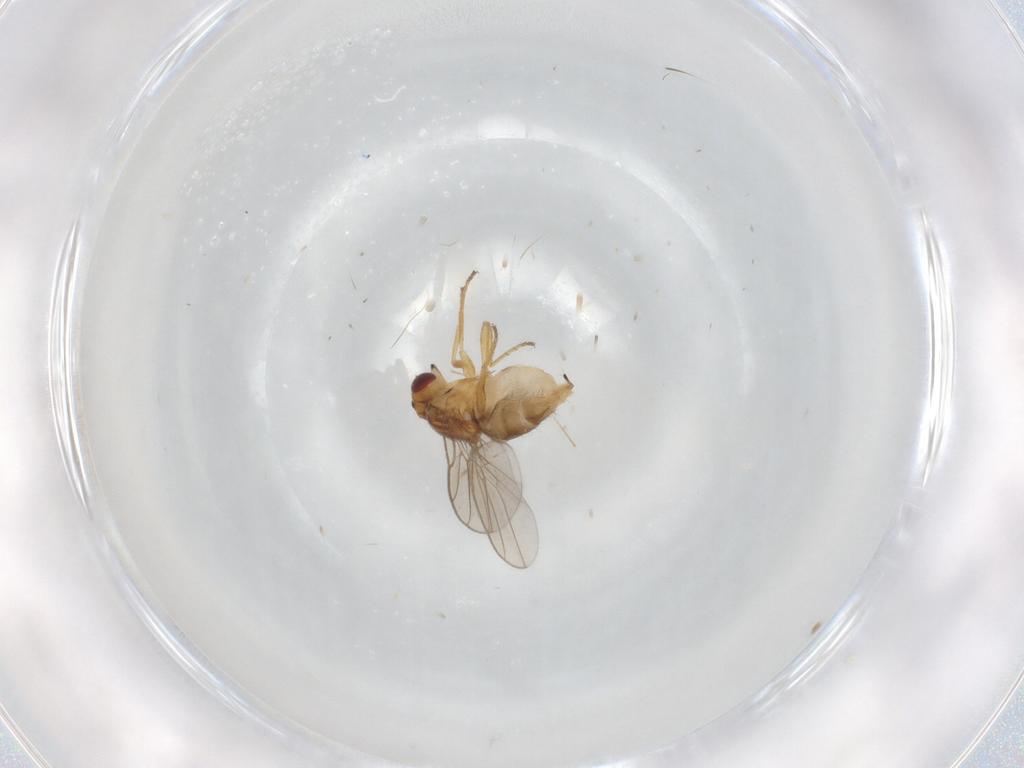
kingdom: Animalia
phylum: Arthropoda
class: Insecta
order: Diptera
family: Chloropidae
